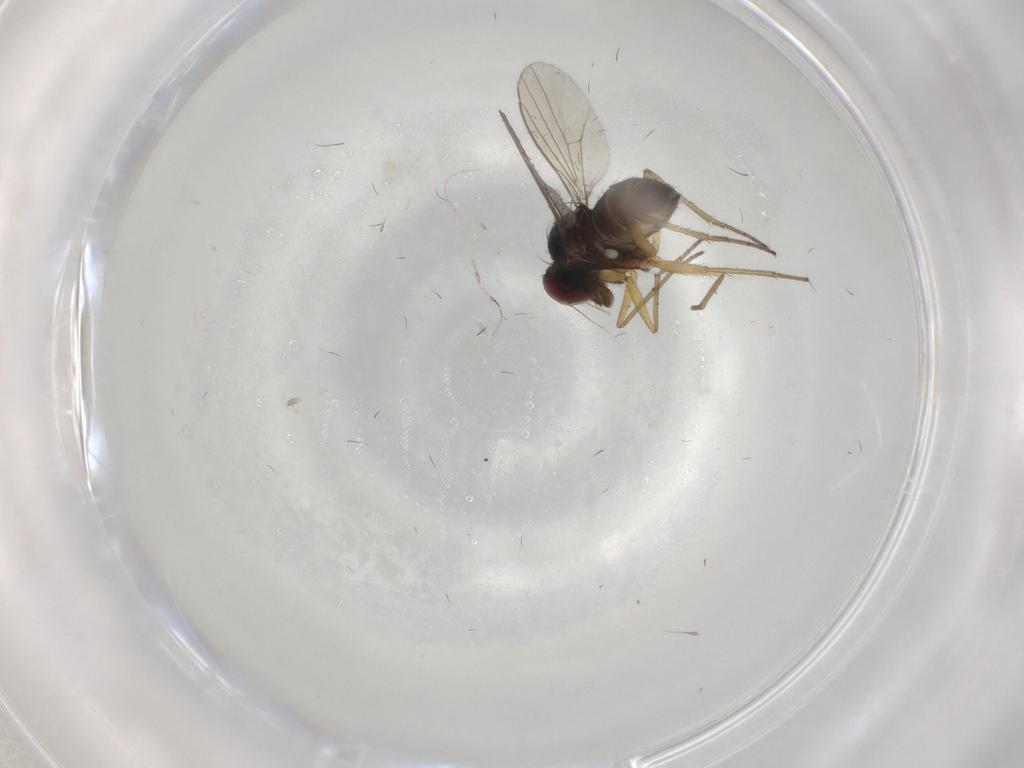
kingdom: Animalia
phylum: Arthropoda
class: Insecta
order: Diptera
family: Dolichopodidae
